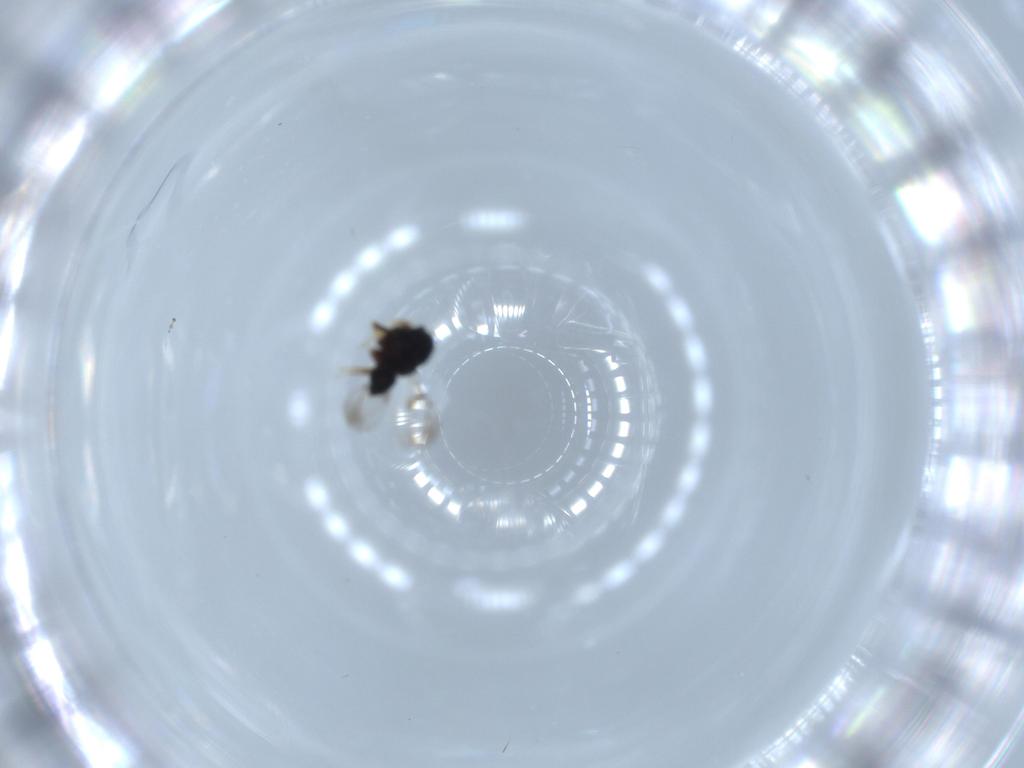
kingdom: Animalia
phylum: Arthropoda
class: Insecta
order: Hymenoptera
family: Ceraphronidae
